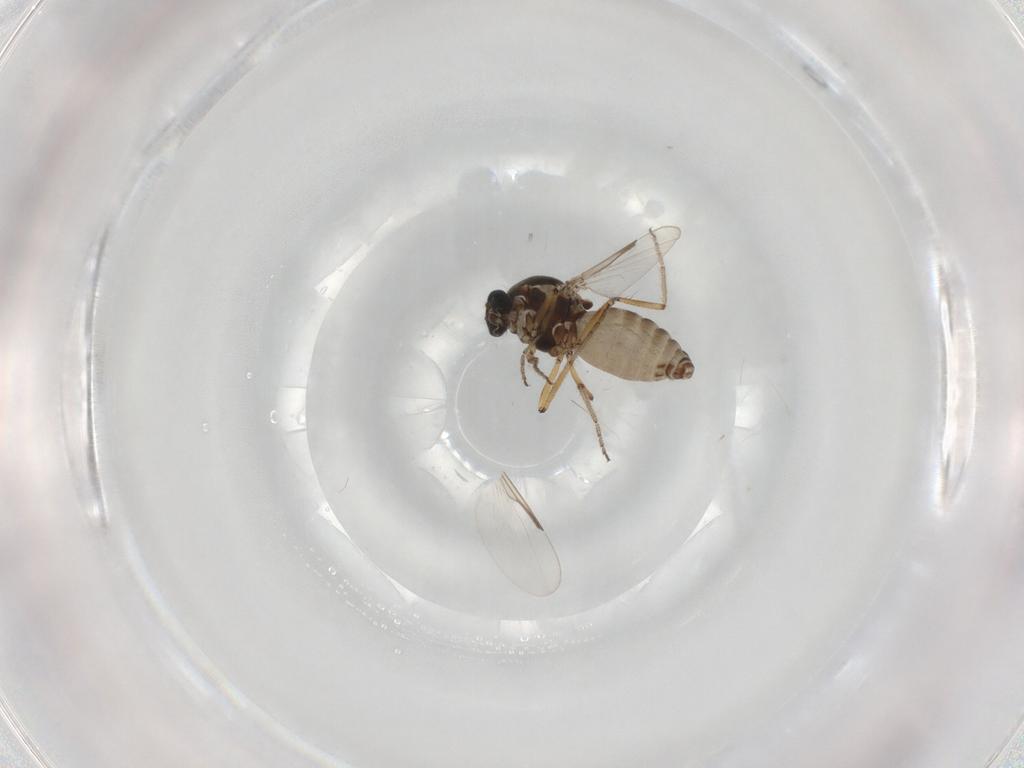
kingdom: Animalia
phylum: Arthropoda
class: Insecta
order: Diptera
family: Ceratopogonidae
